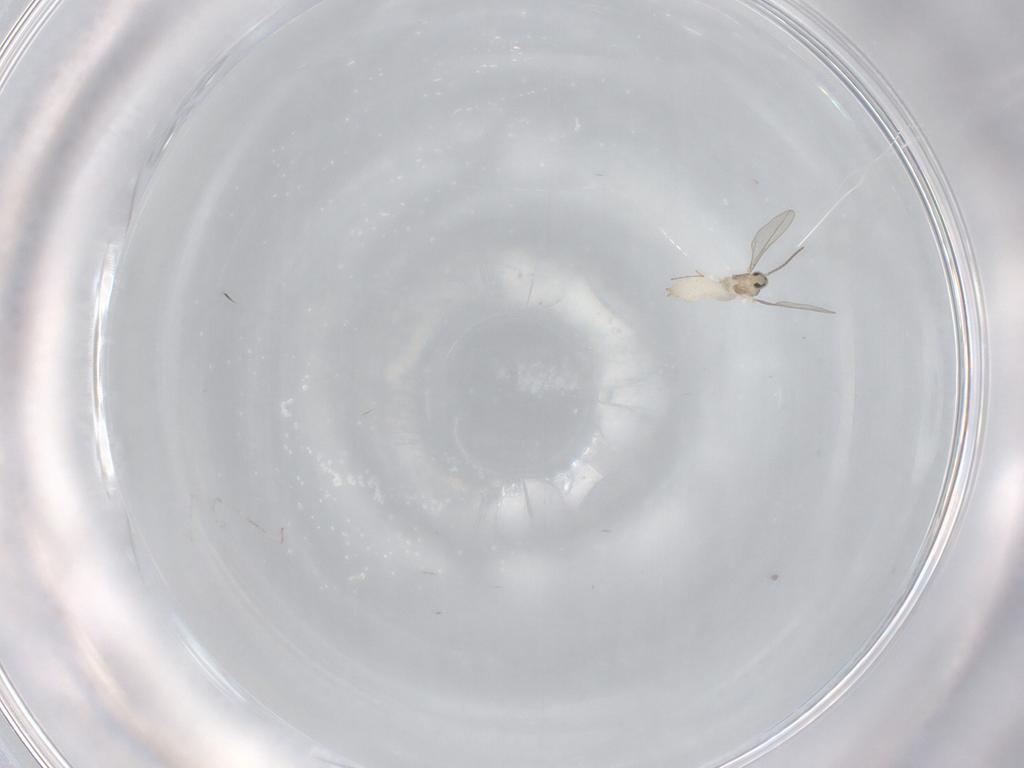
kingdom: Animalia
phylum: Arthropoda
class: Insecta
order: Diptera
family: Cecidomyiidae
